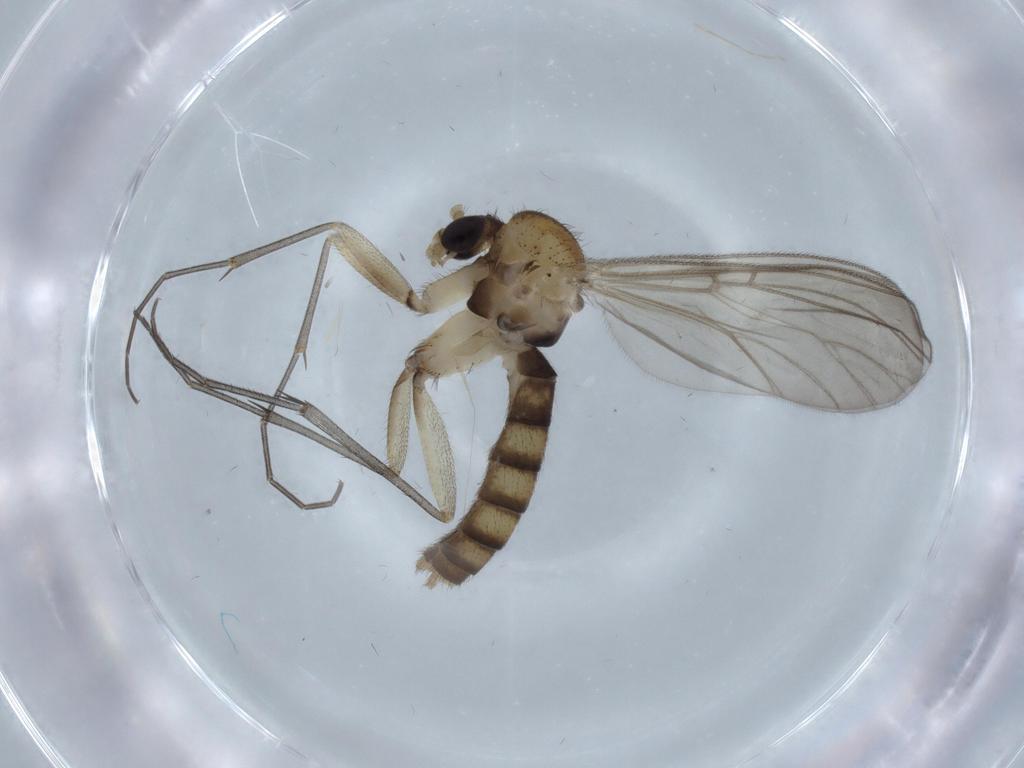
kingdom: Animalia
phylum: Arthropoda
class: Insecta
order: Diptera
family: Mycetophilidae
